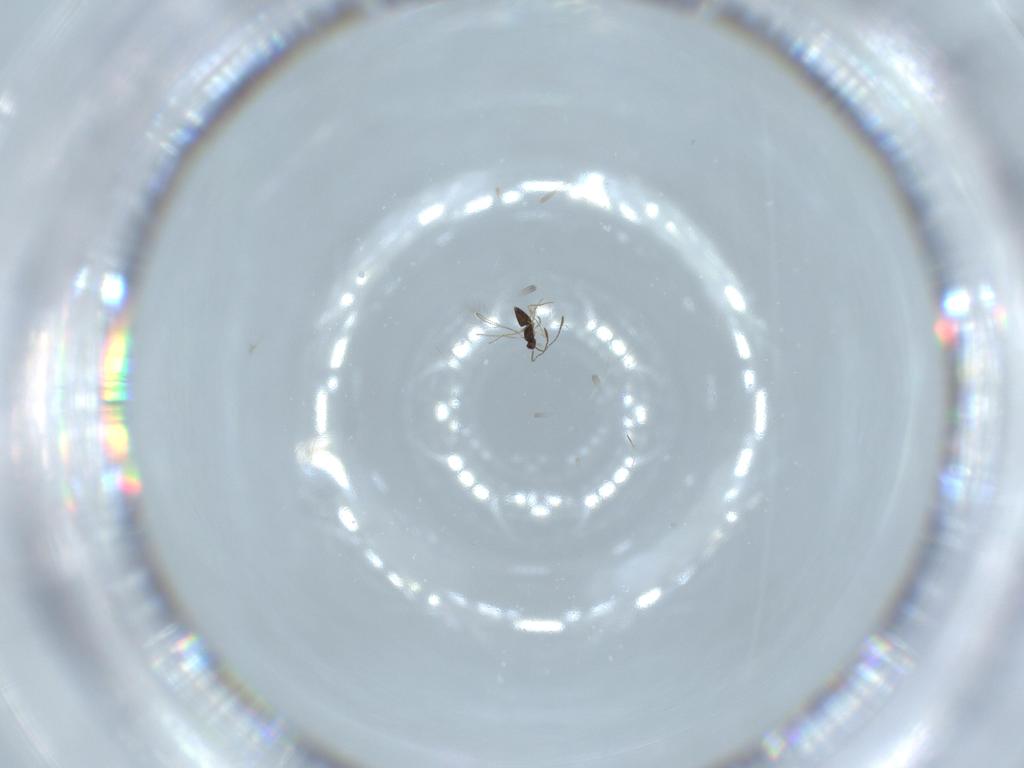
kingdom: Animalia
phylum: Arthropoda
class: Insecta
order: Hymenoptera
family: Mymaridae
